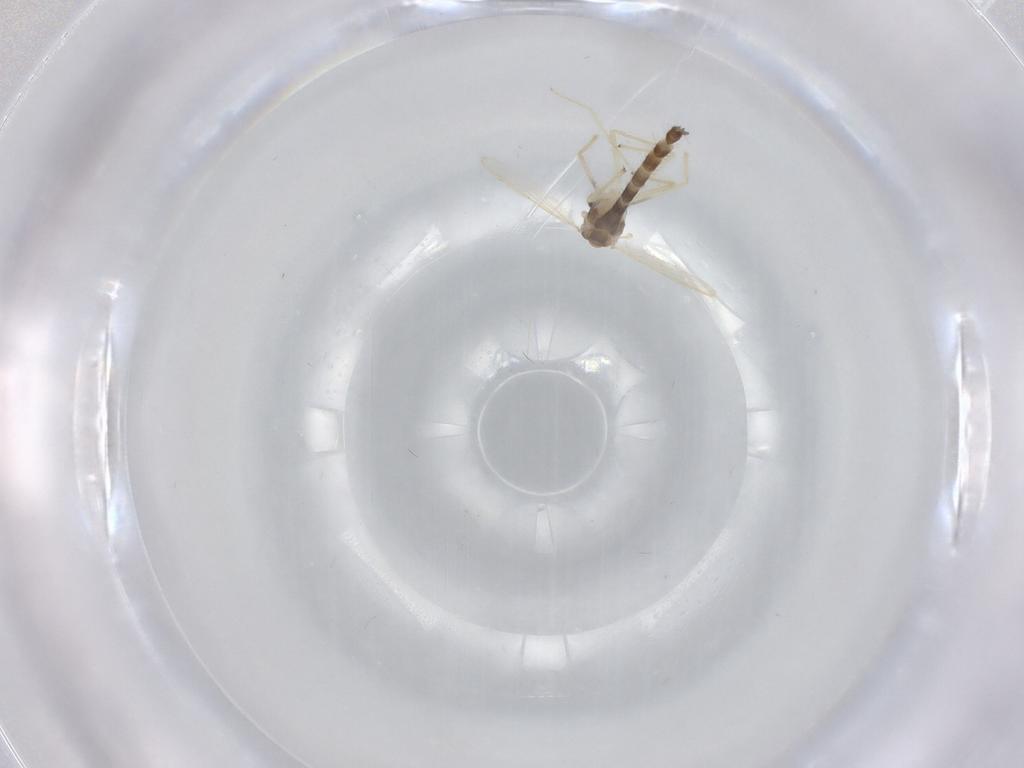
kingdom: Animalia
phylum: Arthropoda
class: Insecta
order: Diptera
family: Chironomidae
